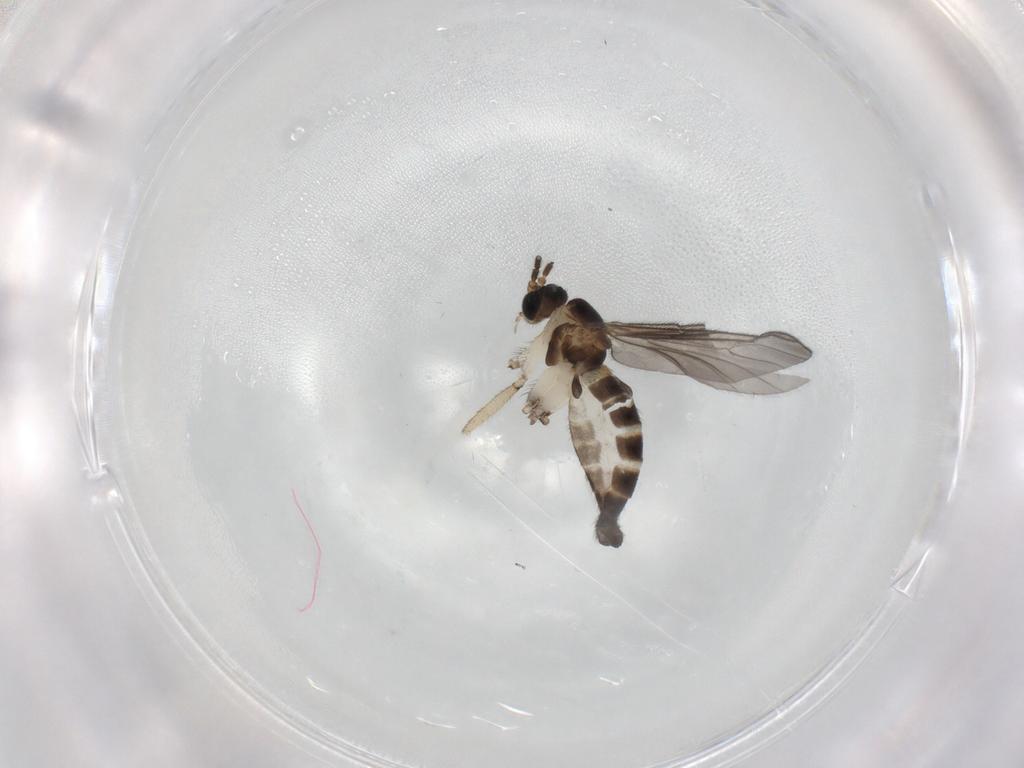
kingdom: Animalia
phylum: Arthropoda
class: Insecta
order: Diptera
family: Sciaridae
